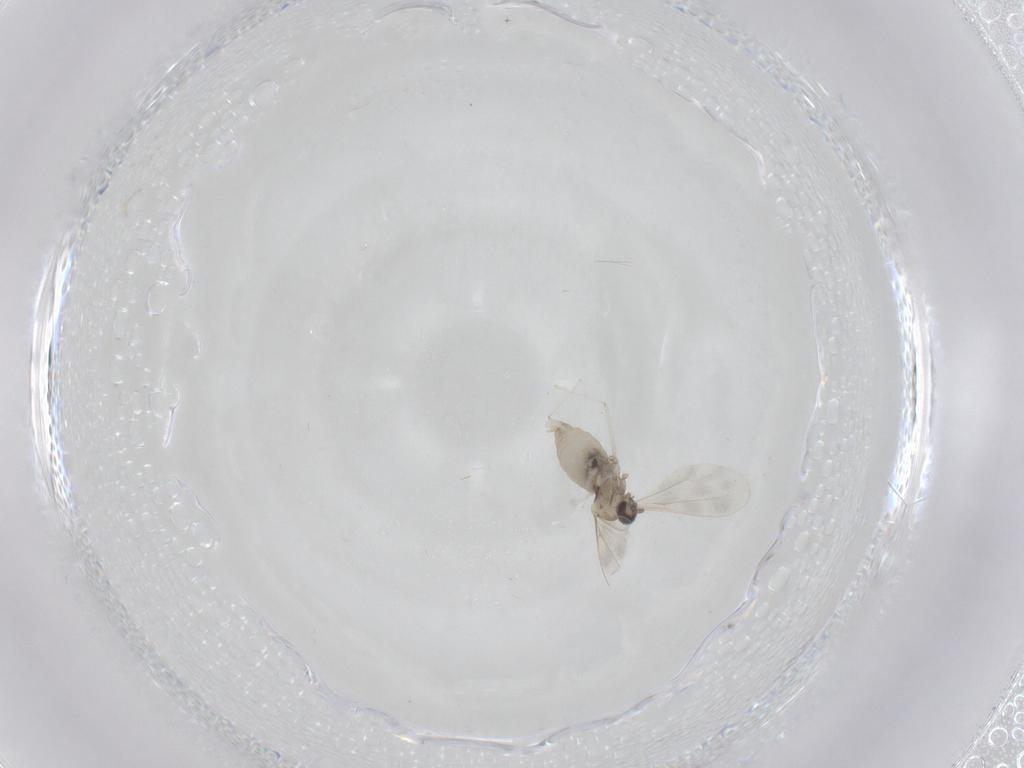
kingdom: Animalia
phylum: Arthropoda
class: Insecta
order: Diptera
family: Cecidomyiidae
